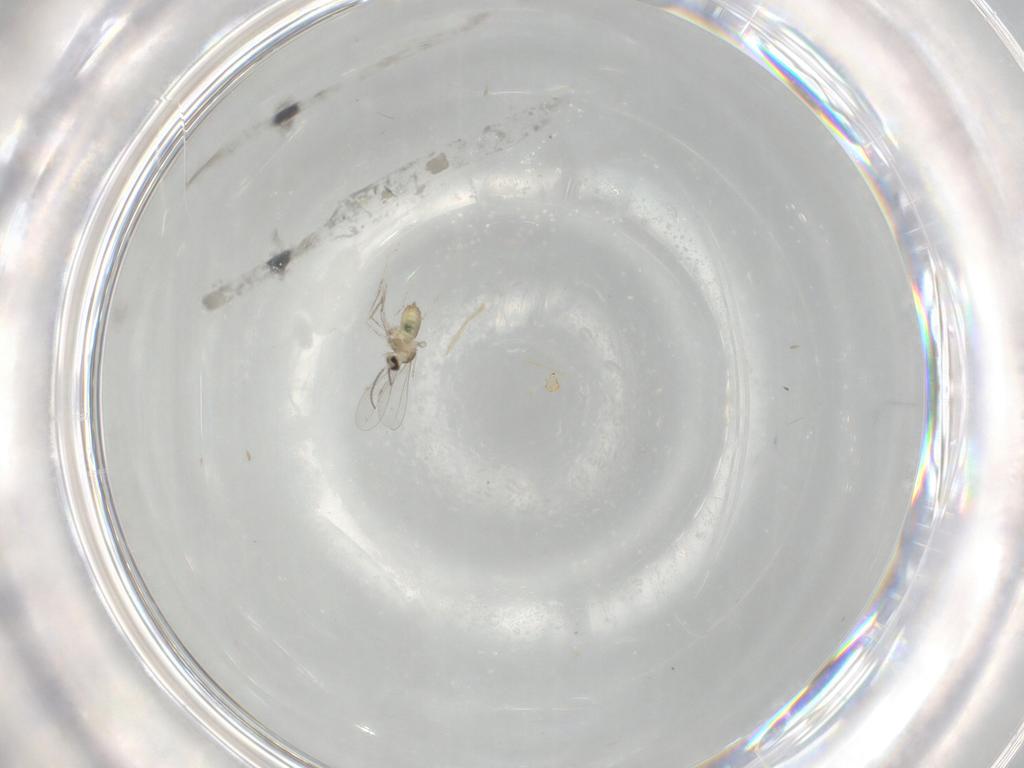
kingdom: Animalia
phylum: Arthropoda
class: Insecta
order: Diptera
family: Cecidomyiidae
